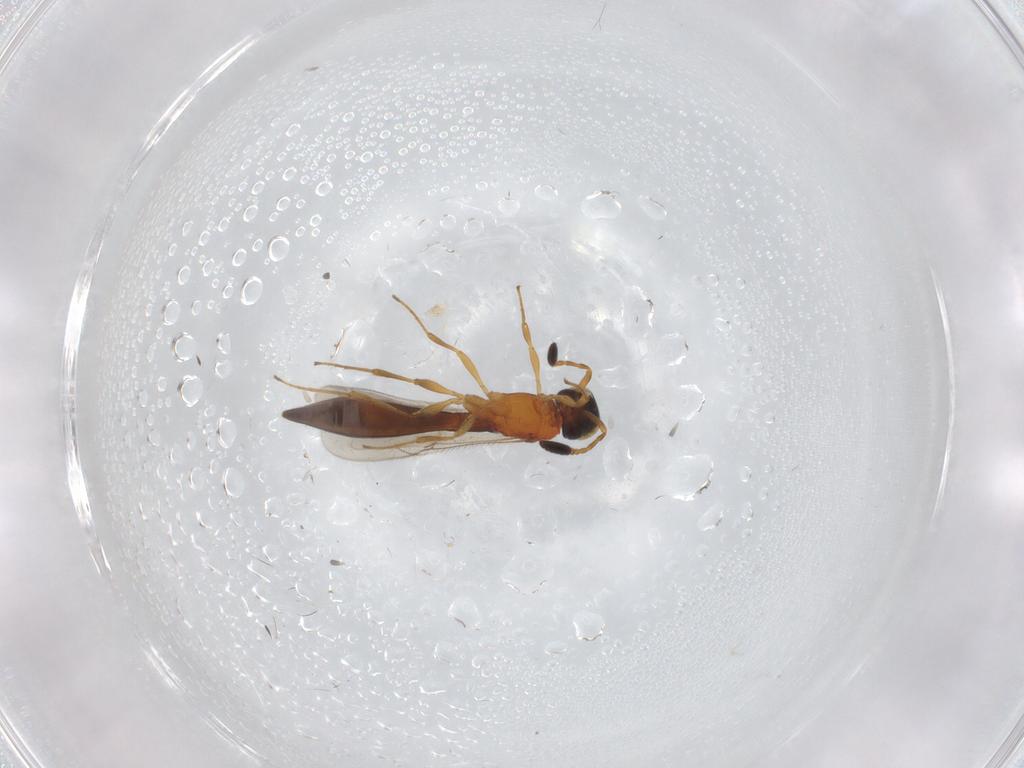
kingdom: Animalia
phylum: Arthropoda
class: Insecta
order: Hymenoptera
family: Scelionidae
